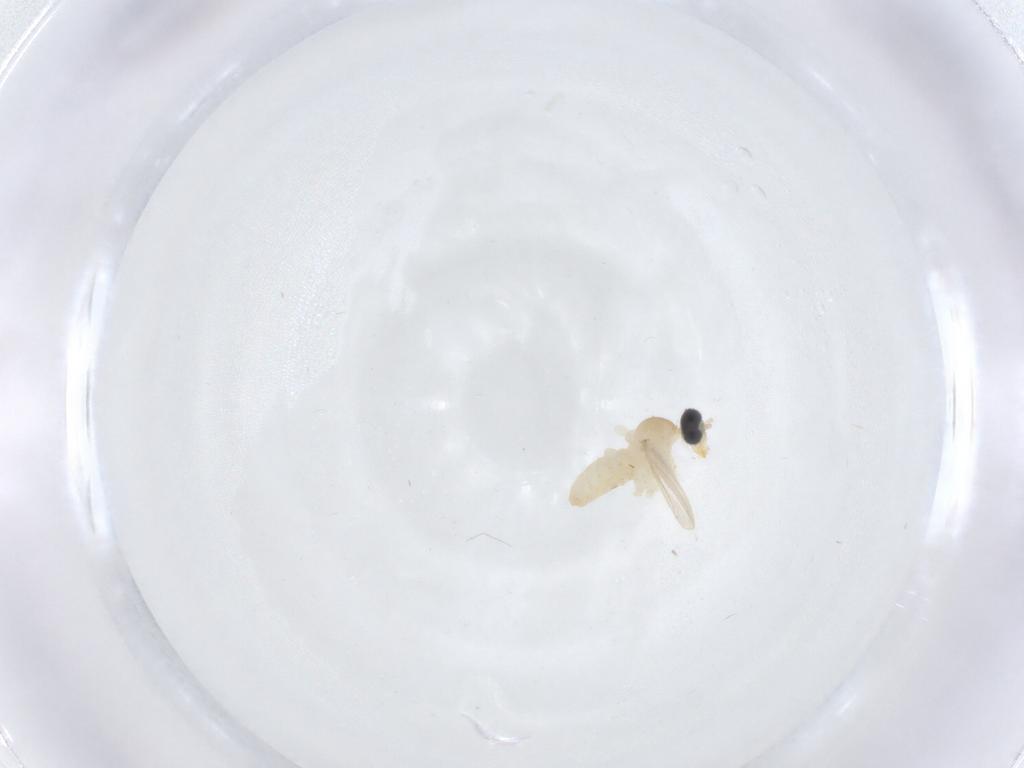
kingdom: Animalia
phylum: Arthropoda
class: Insecta
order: Diptera
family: Cecidomyiidae
